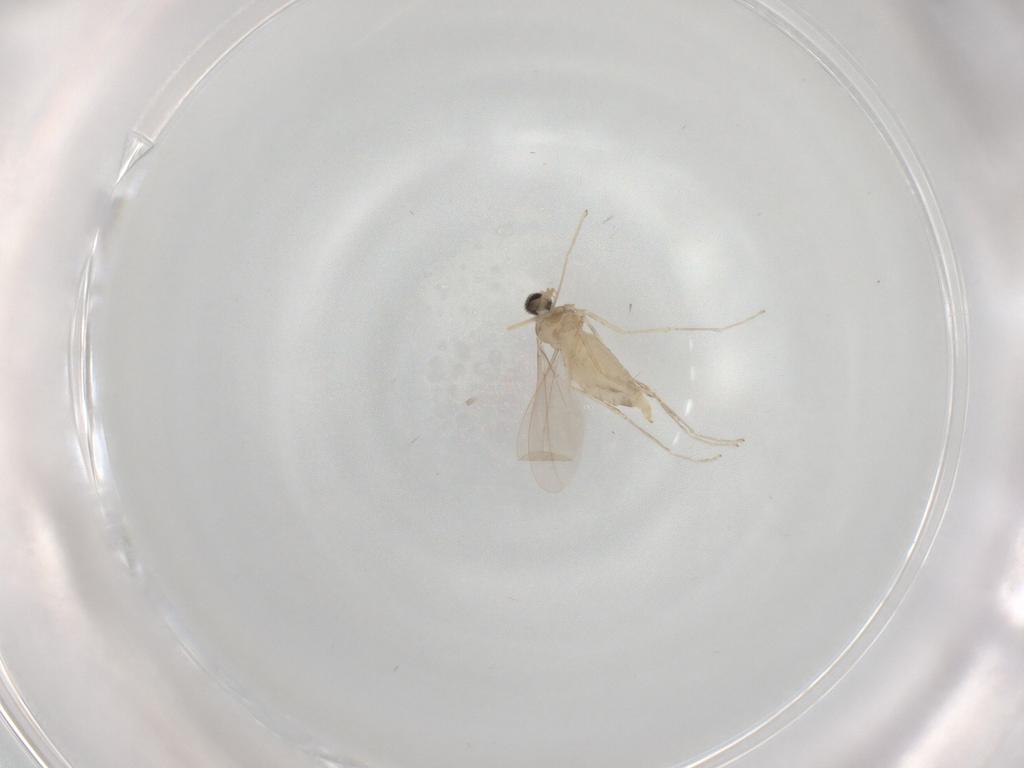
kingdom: Animalia
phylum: Arthropoda
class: Insecta
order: Diptera
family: Cecidomyiidae
